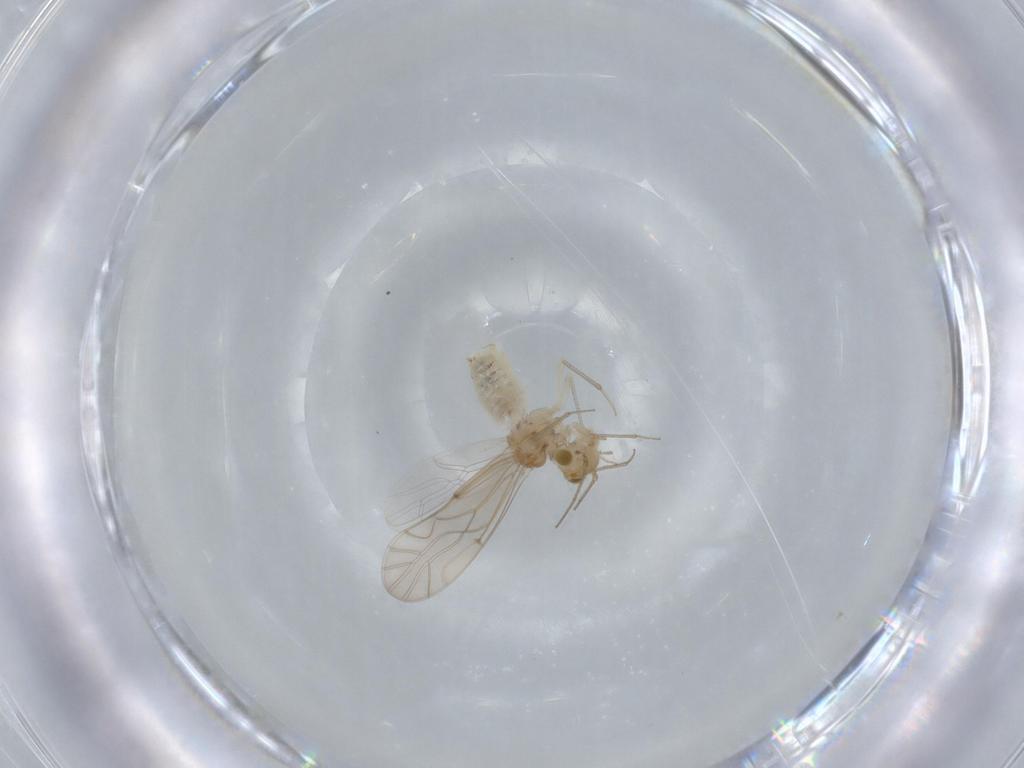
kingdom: Animalia
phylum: Arthropoda
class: Insecta
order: Psocodea
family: Lachesillidae
